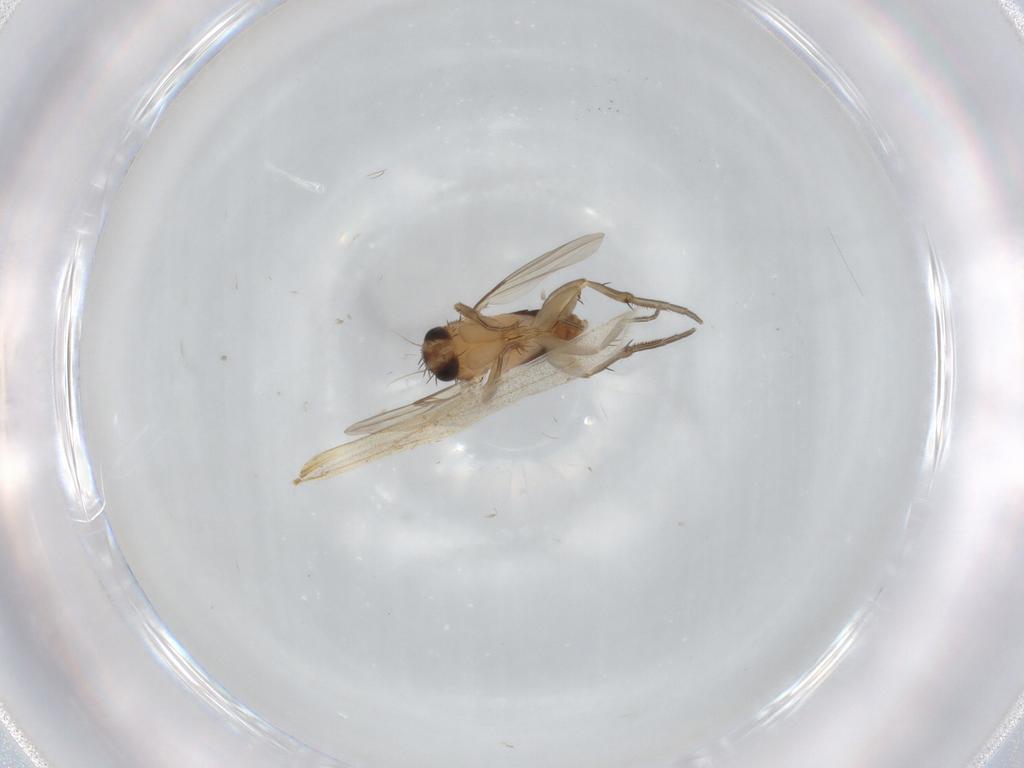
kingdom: Animalia
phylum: Arthropoda
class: Insecta
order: Diptera
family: Phoridae
